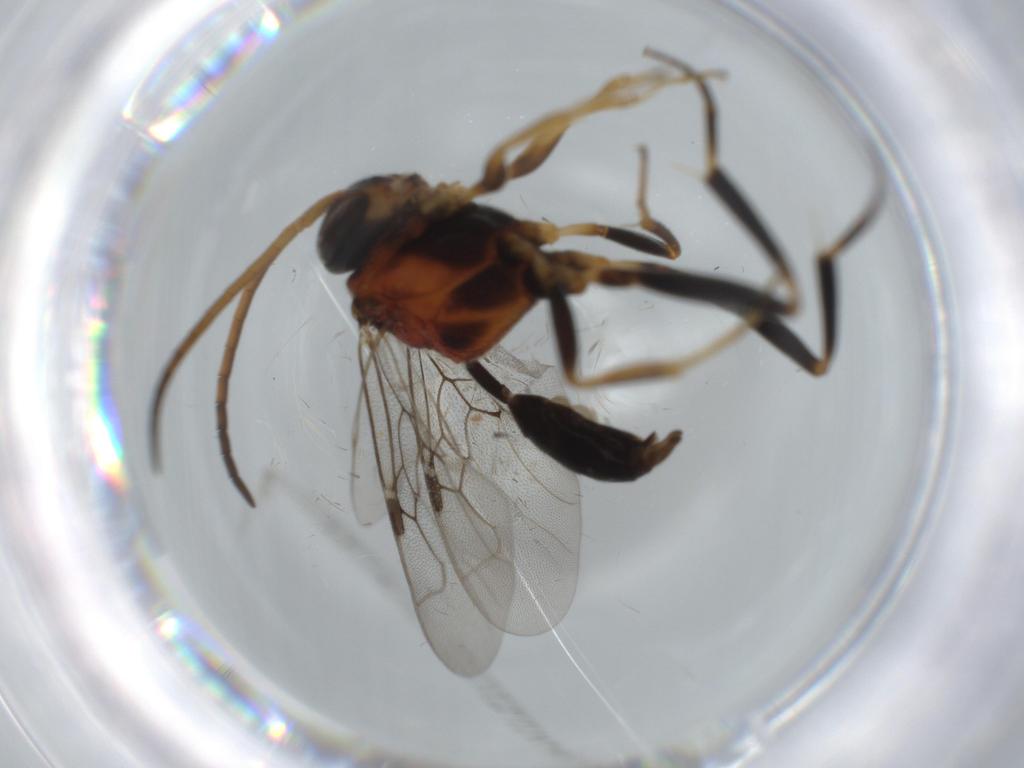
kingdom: Animalia
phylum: Arthropoda
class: Insecta
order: Hymenoptera
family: Evaniidae
